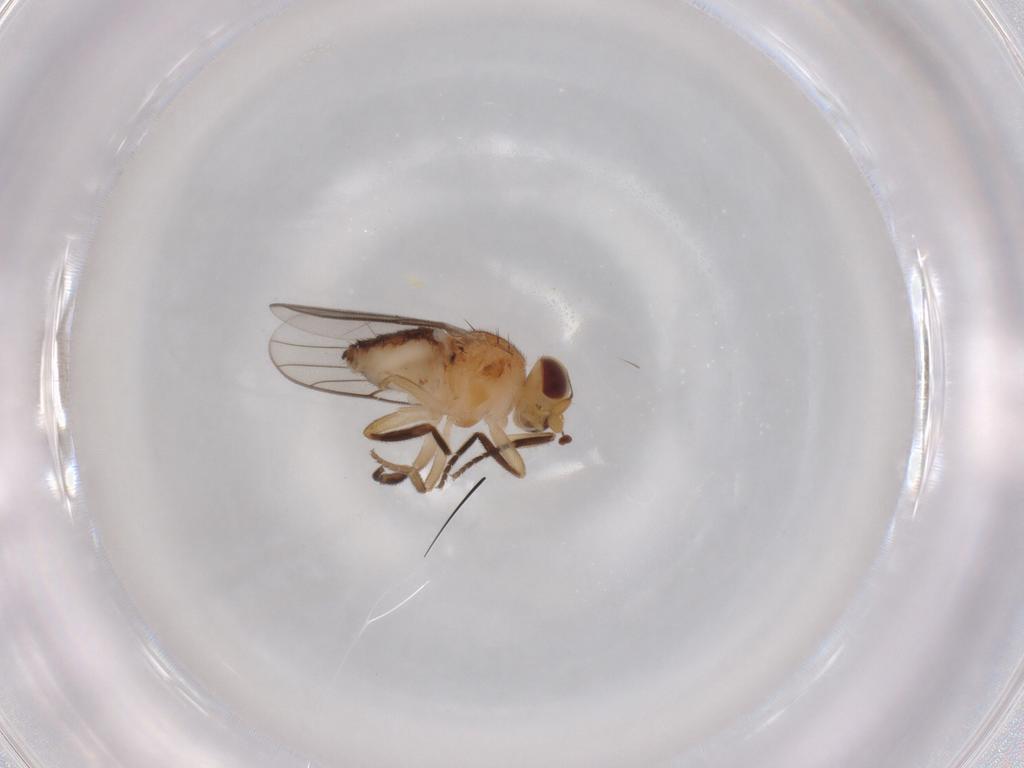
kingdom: Animalia
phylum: Arthropoda
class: Insecta
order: Diptera
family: Chloropidae
